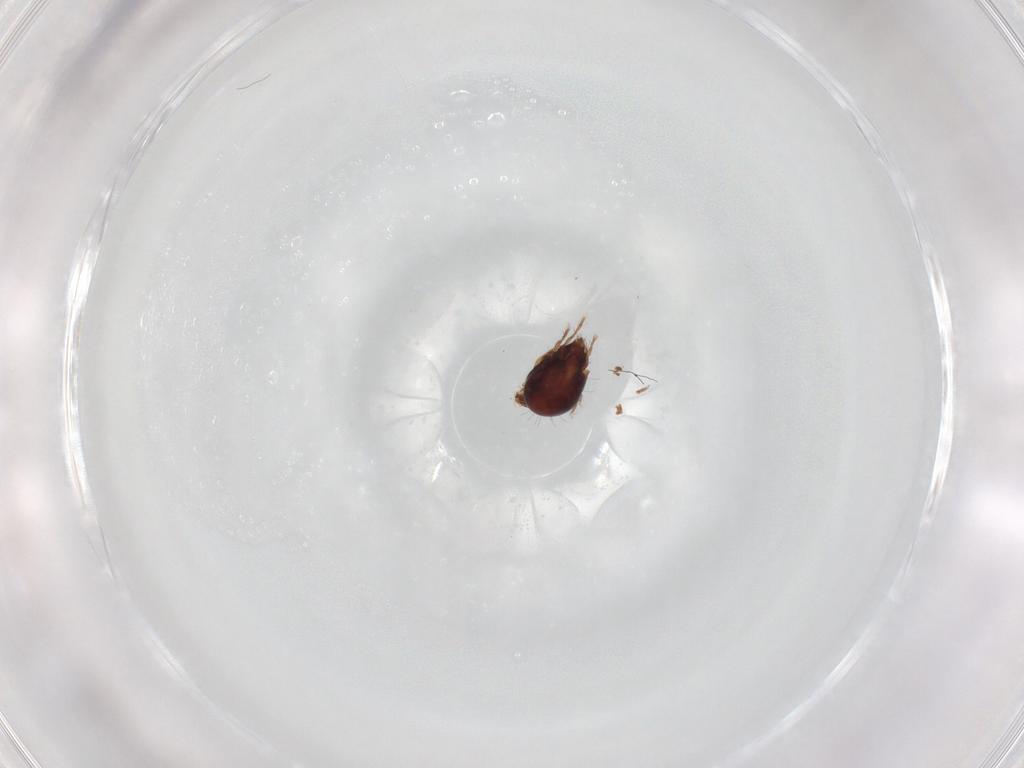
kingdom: Animalia
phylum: Arthropoda
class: Arachnida
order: Sarcoptiformes
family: Humerobatidae
